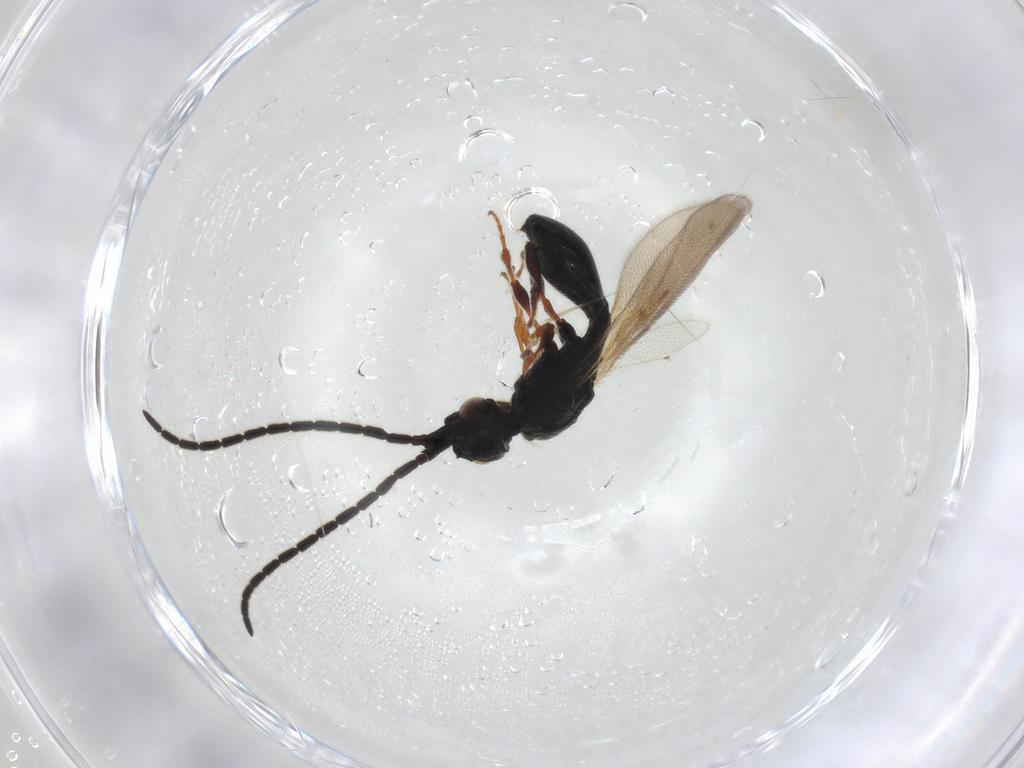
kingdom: Animalia
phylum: Arthropoda
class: Insecta
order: Hymenoptera
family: Diapriidae
